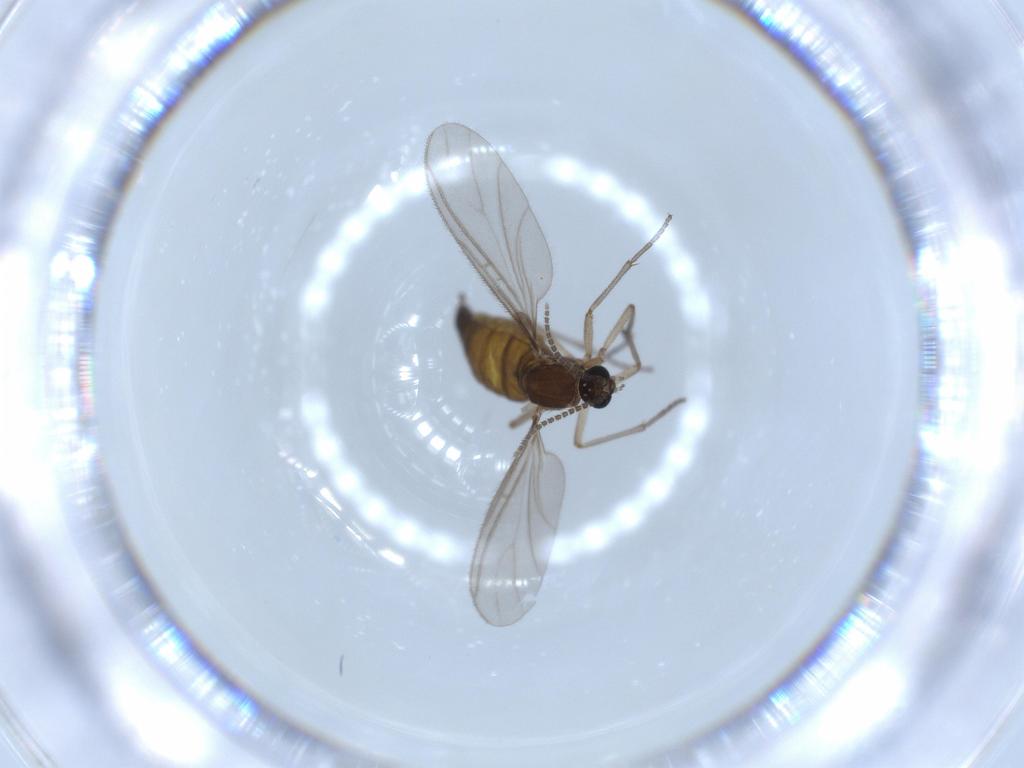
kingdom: Animalia
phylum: Arthropoda
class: Insecta
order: Diptera
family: Sciaridae
